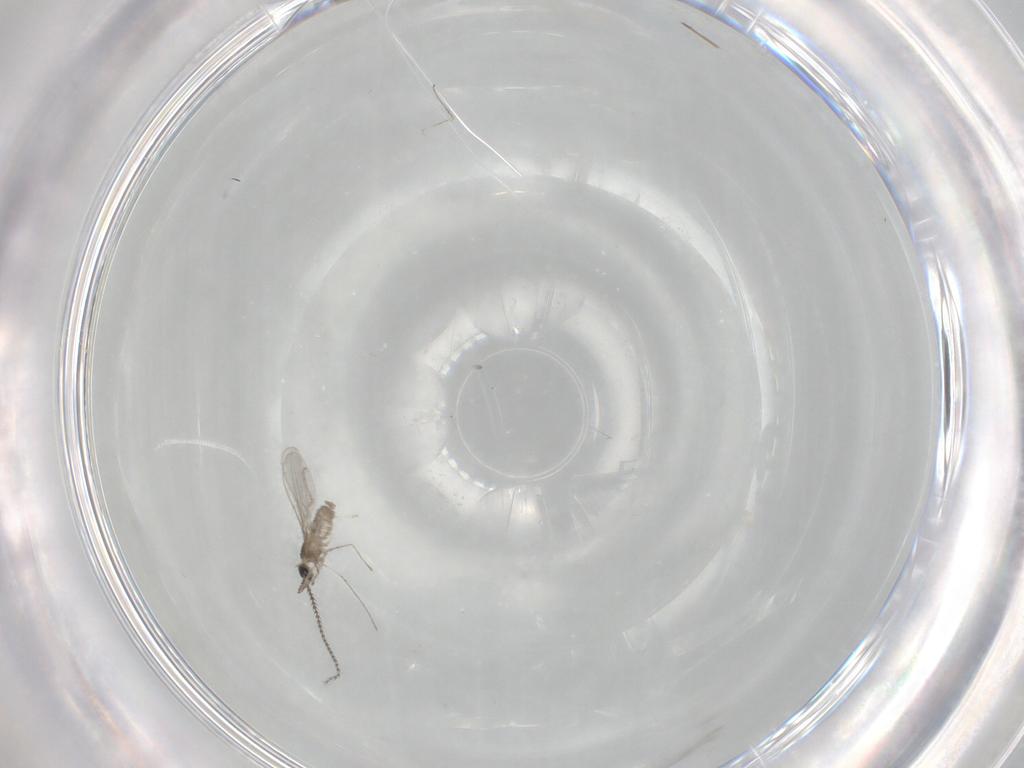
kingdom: Animalia
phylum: Arthropoda
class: Insecta
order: Diptera
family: Cecidomyiidae
